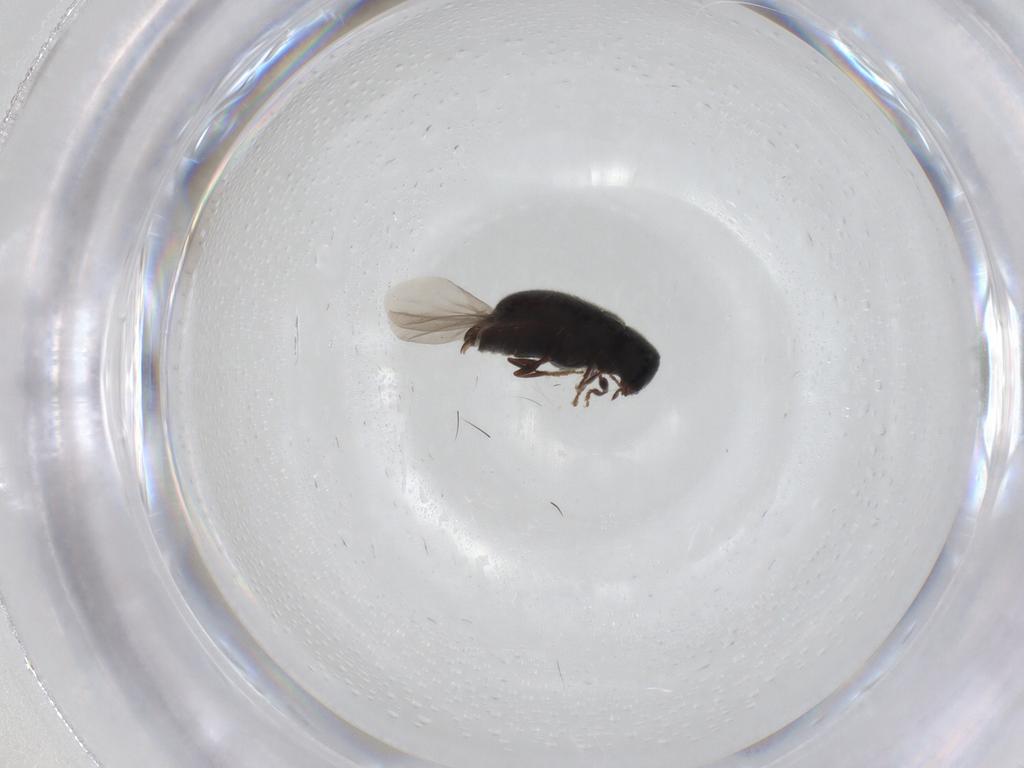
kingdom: Animalia
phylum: Arthropoda
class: Insecta
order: Coleoptera
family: Ptinidae
